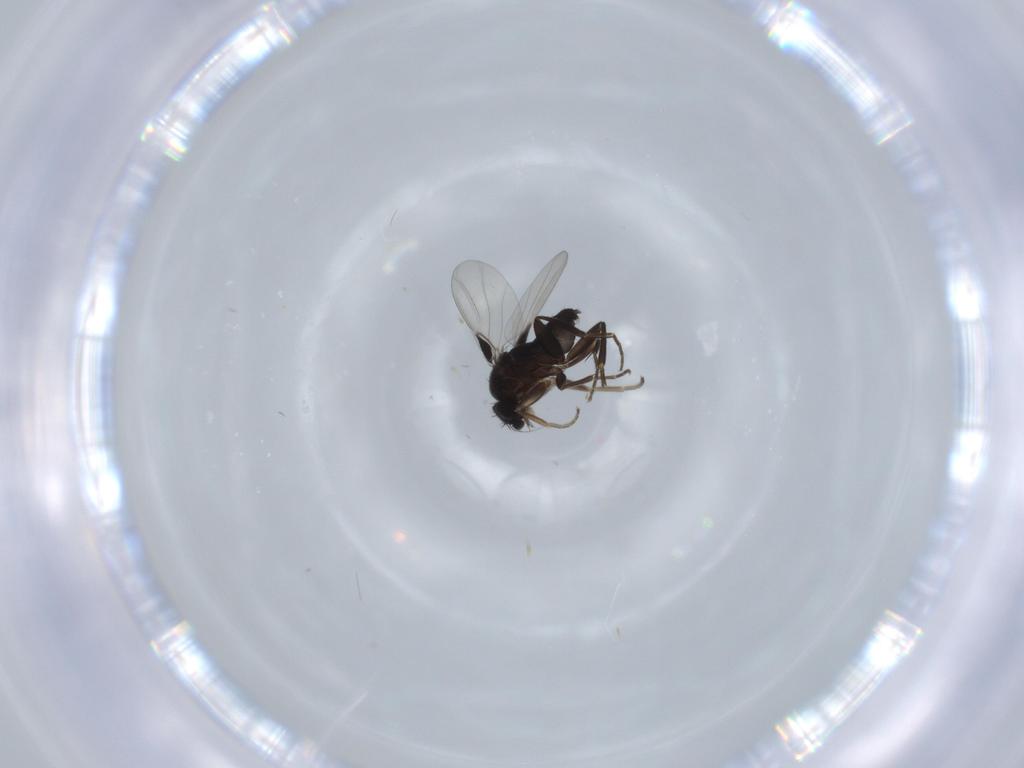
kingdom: Animalia
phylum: Arthropoda
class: Insecta
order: Diptera
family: Phoridae
